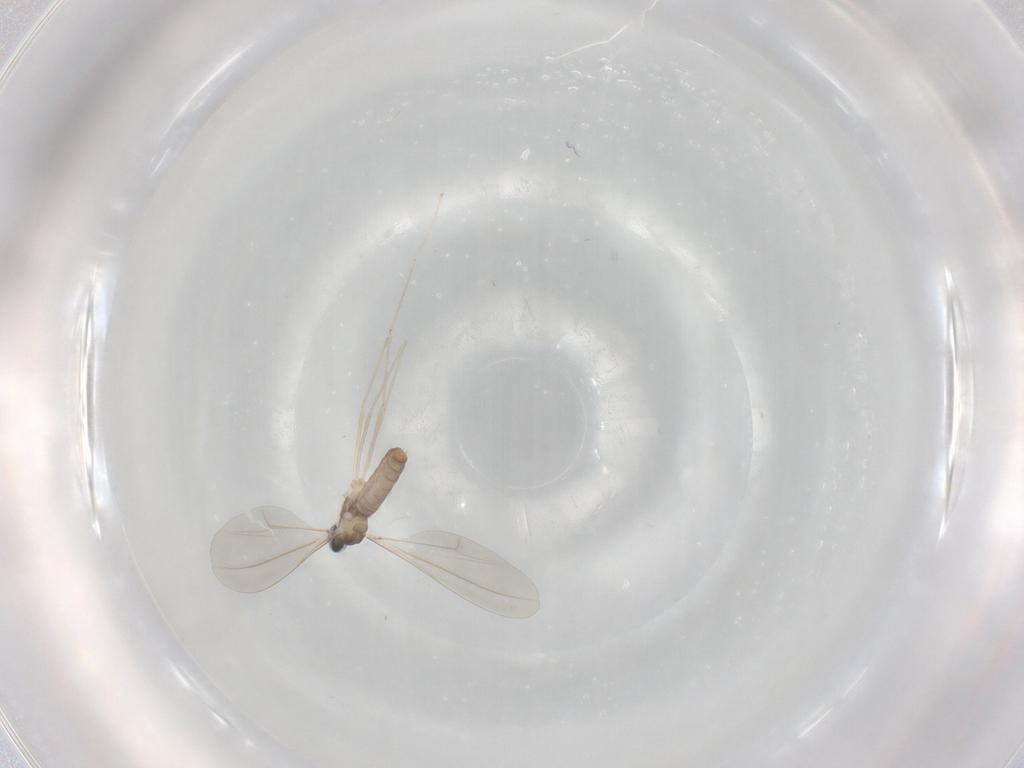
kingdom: Animalia
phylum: Arthropoda
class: Insecta
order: Diptera
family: Cecidomyiidae
